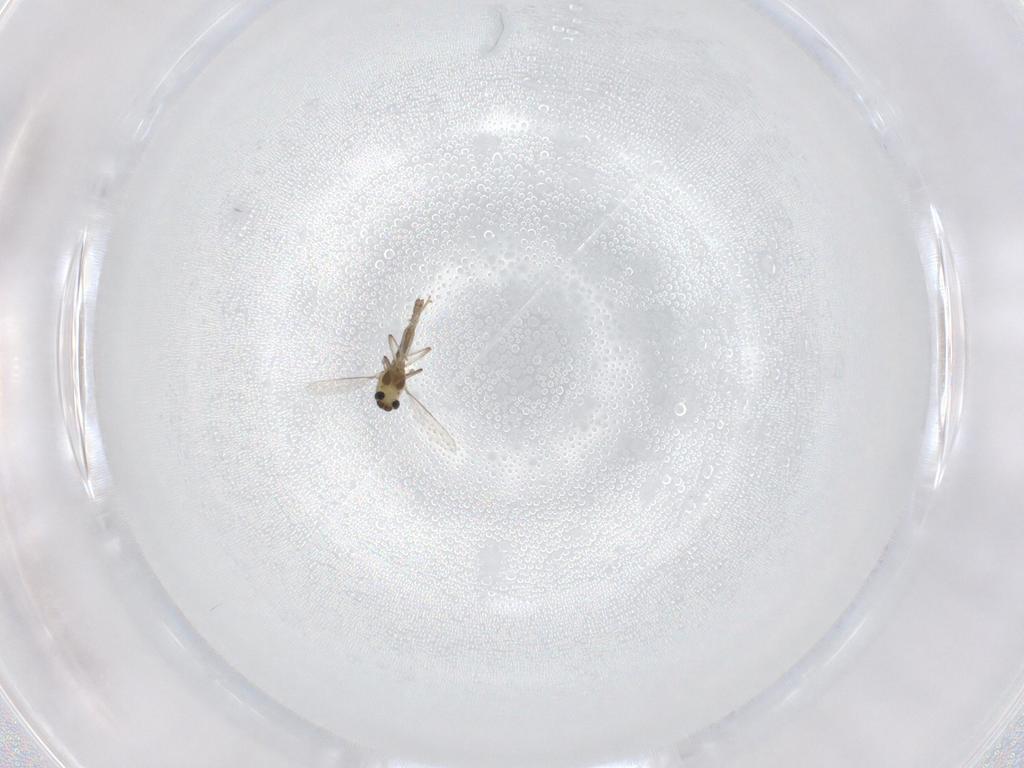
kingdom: Animalia
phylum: Arthropoda
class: Insecta
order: Diptera
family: Chironomidae
